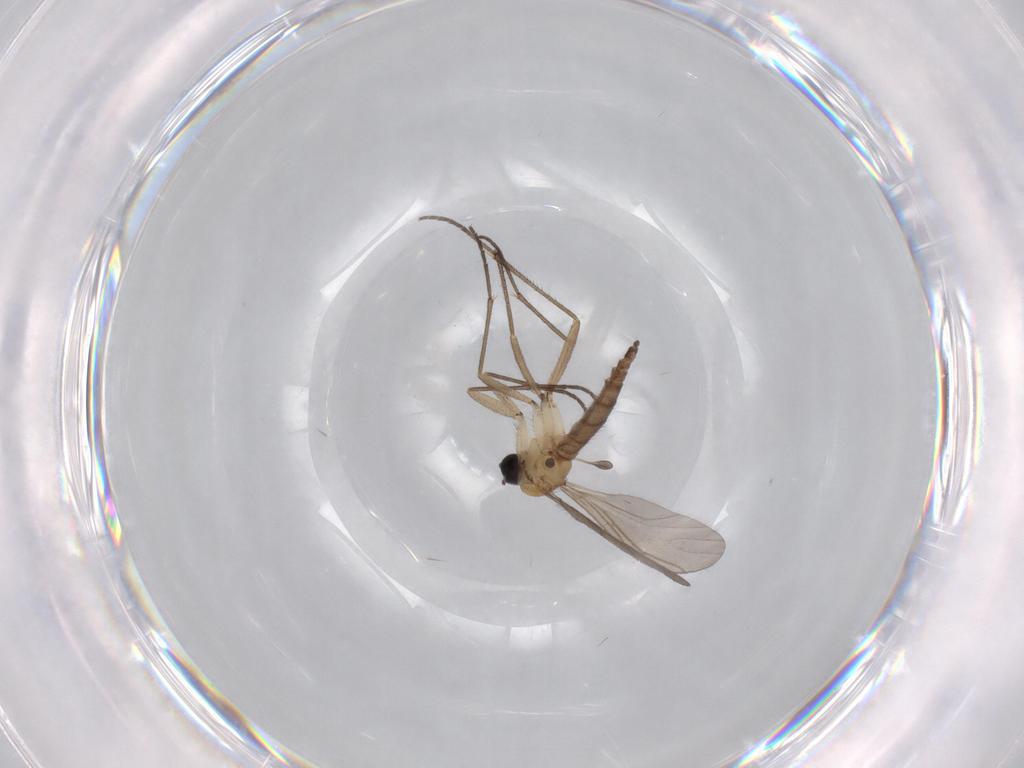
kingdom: Animalia
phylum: Arthropoda
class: Insecta
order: Diptera
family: Sciaridae
